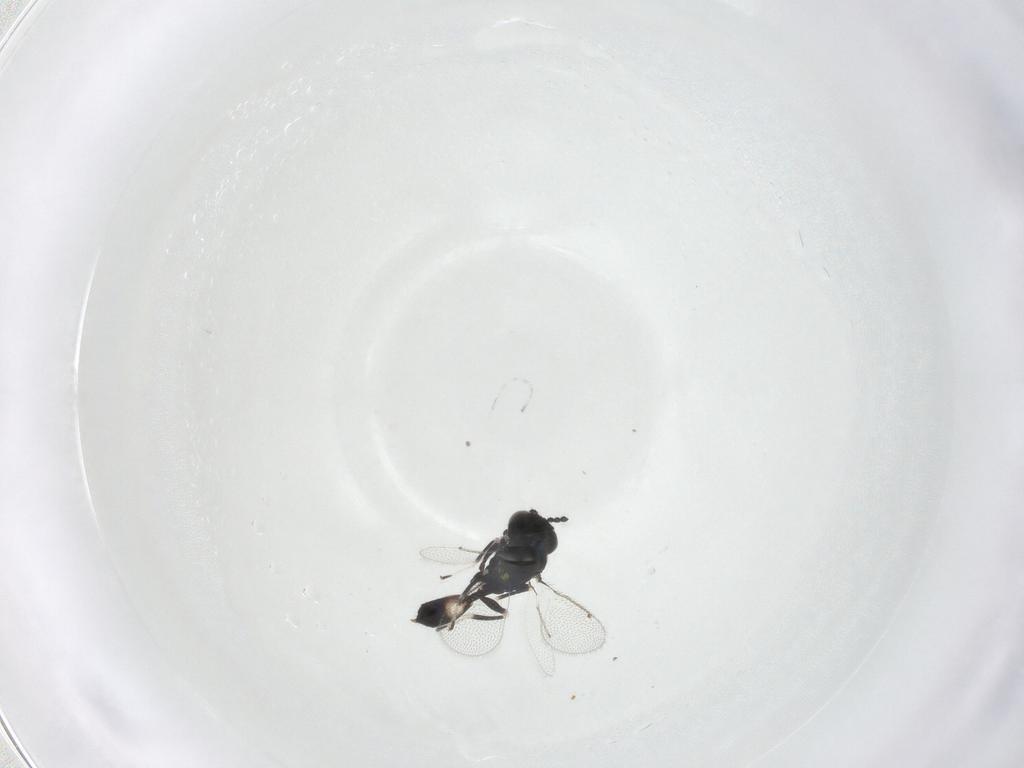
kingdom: Animalia
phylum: Arthropoda
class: Insecta
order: Hymenoptera
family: Eulophidae
